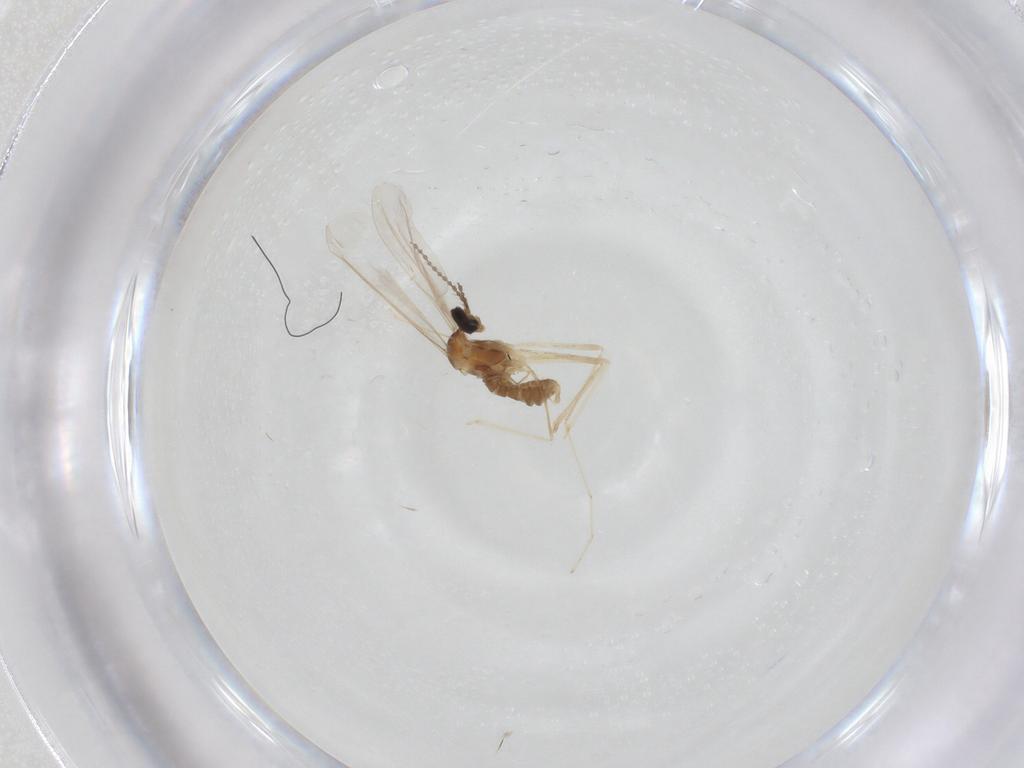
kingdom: Animalia
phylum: Arthropoda
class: Insecta
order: Diptera
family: Cecidomyiidae
